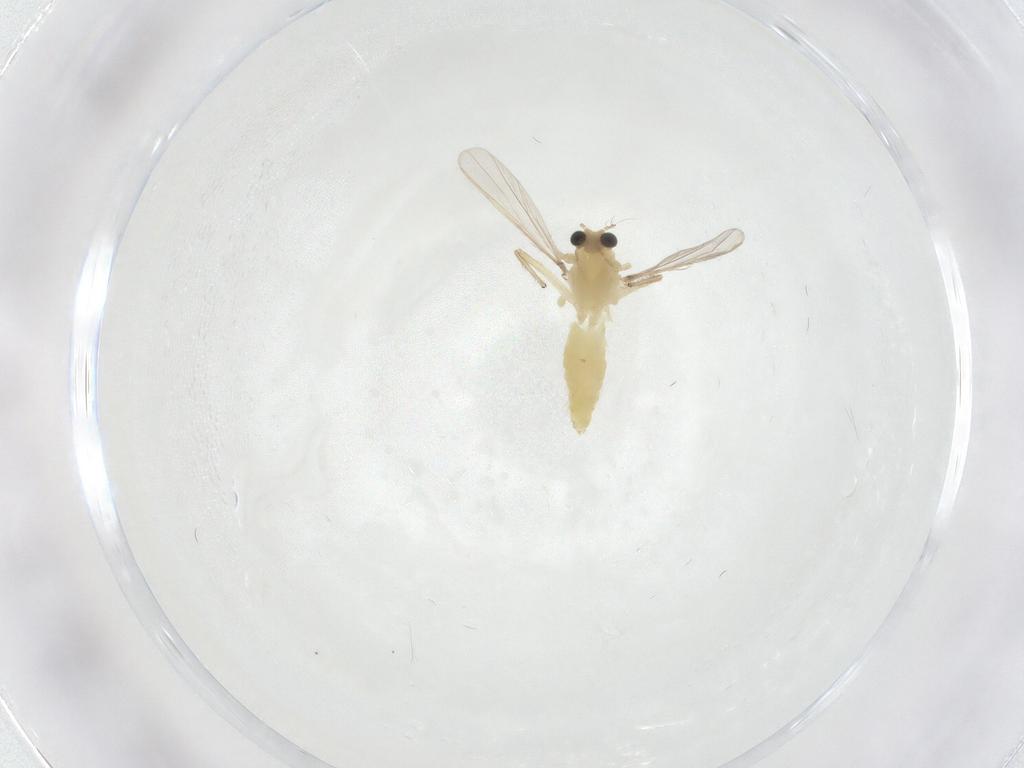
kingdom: Animalia
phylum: Arthropoda
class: Insecta
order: Diptera
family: Chironomidae
